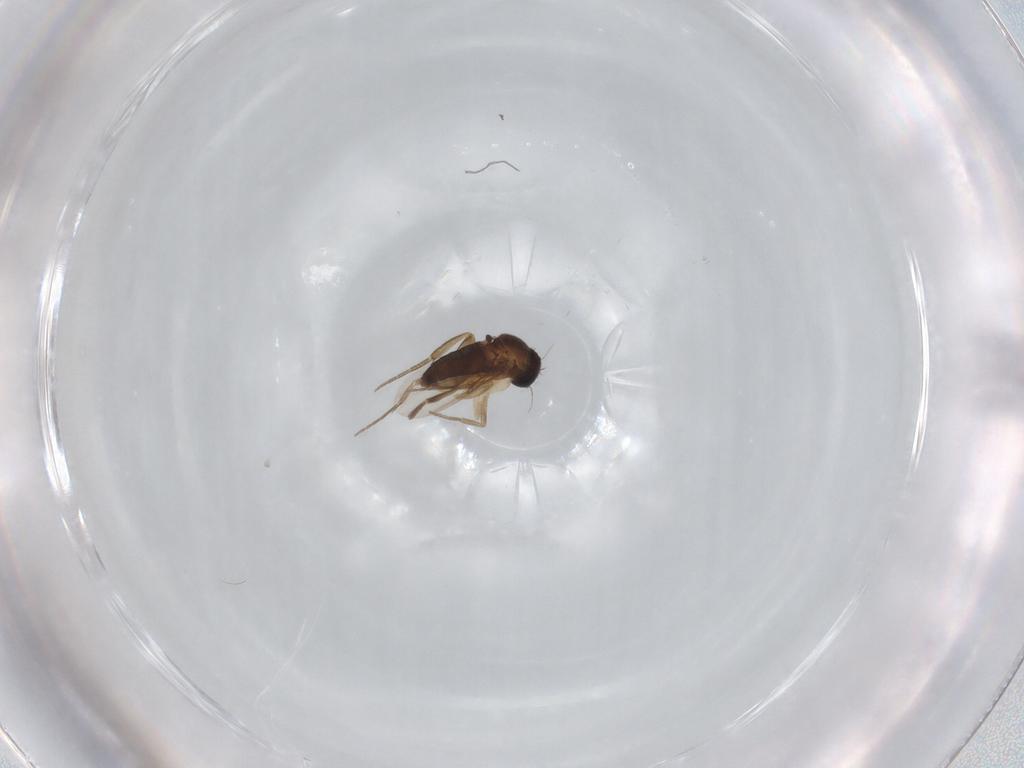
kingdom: Animalia
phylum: Arthropoda
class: Insecta
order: Diptera
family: Phoridae
